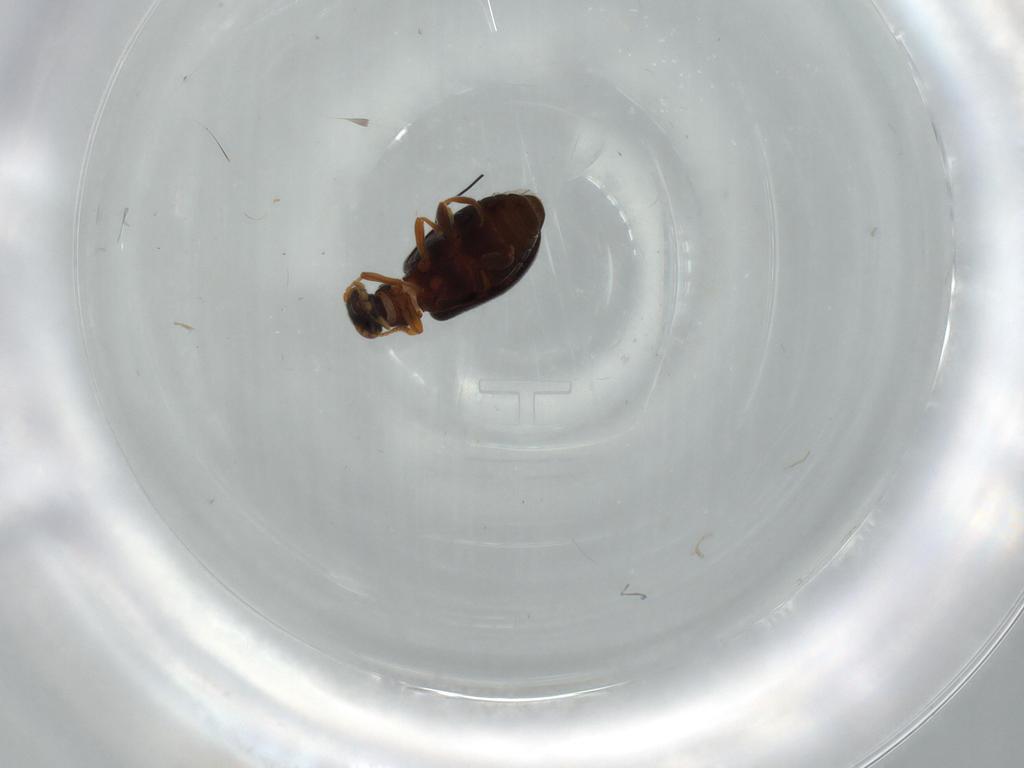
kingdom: Animalia
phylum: Arthropoda
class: Insecta
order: Coleoptera
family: Aderidae
